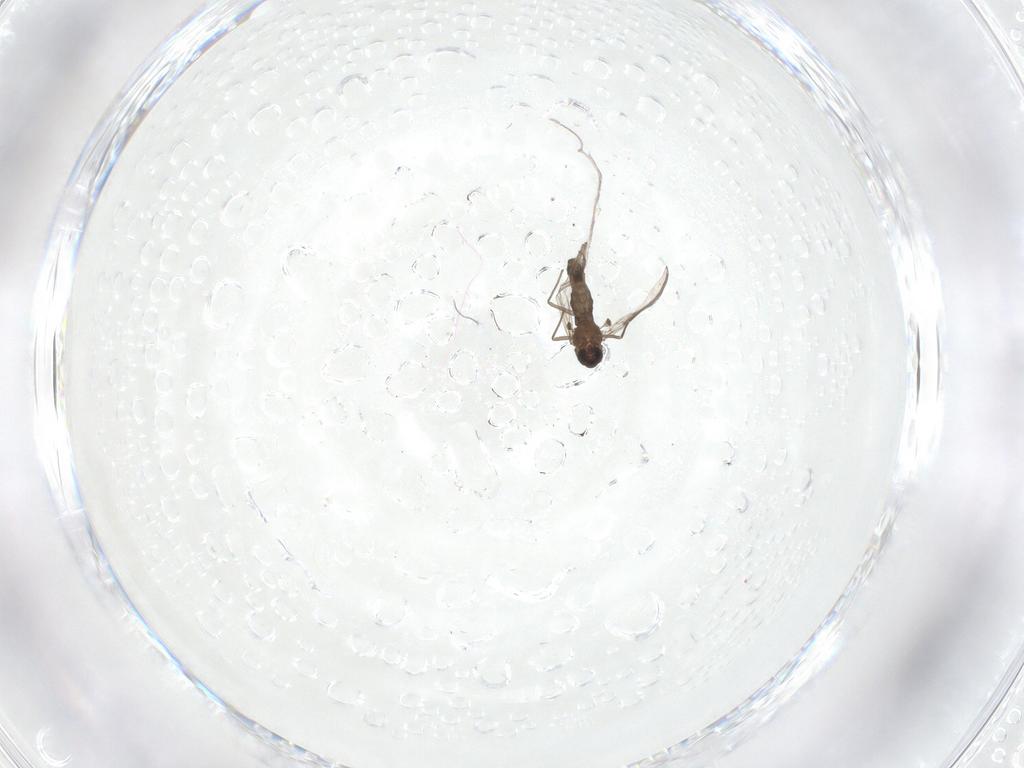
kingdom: Animalia
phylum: Arthropoda
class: Insecta
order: Diptera
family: Chironomidae
